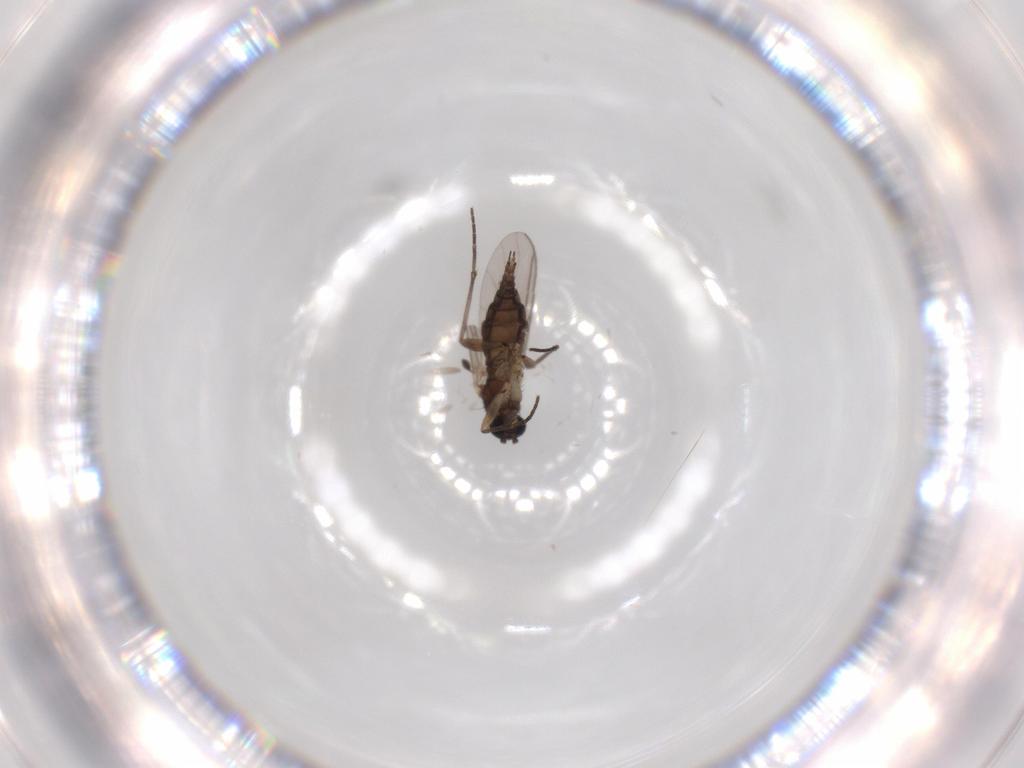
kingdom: Animalia
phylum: Arthropoda
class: Insecta
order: Diptera
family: Sciaridae
